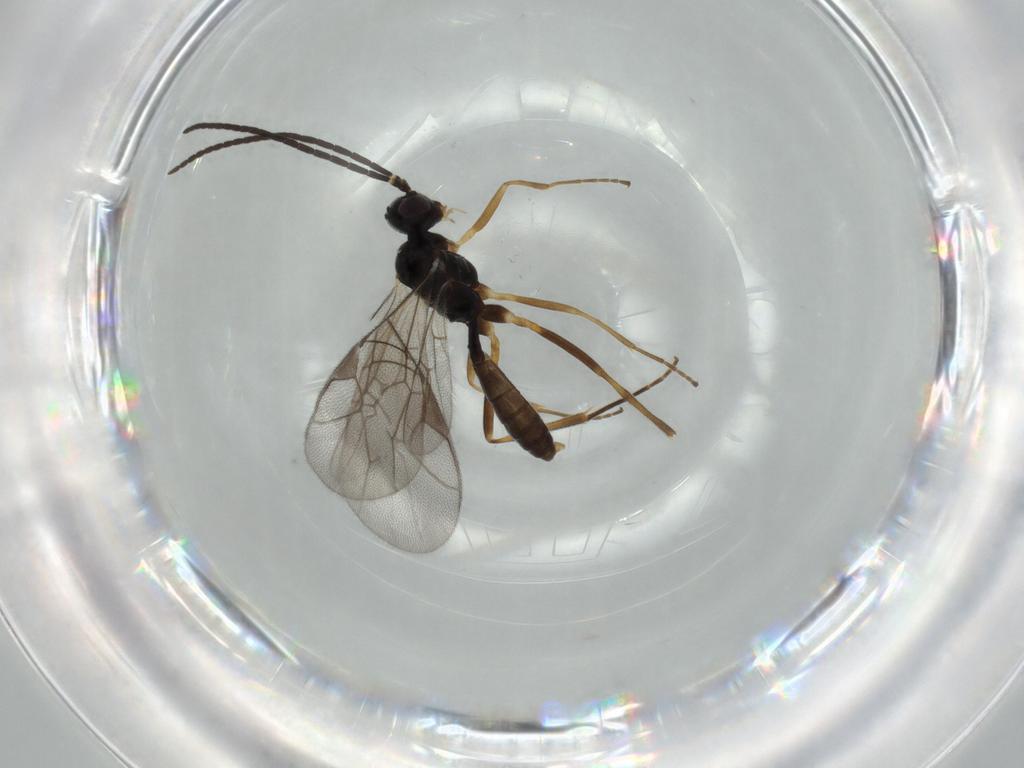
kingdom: Animalia
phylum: Arthropoda
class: Insecta
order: Hymenoptera
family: Ichneumonidae
